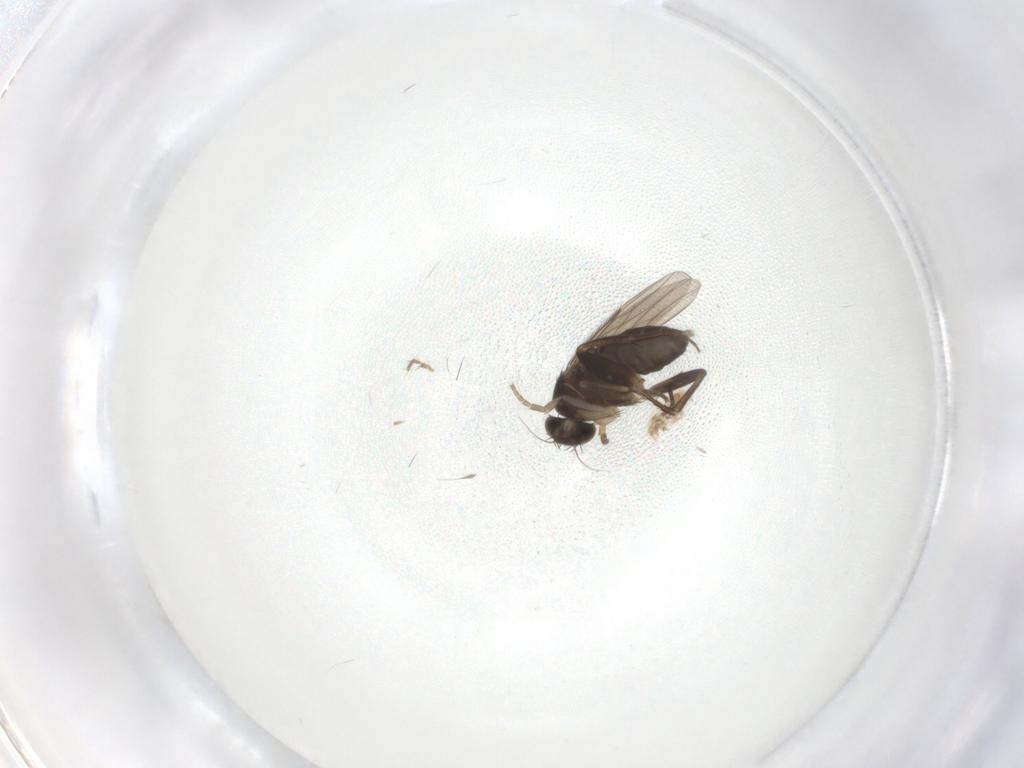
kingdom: Animalia
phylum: Arthropoda
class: Insecta
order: Diptera
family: Phoridae
